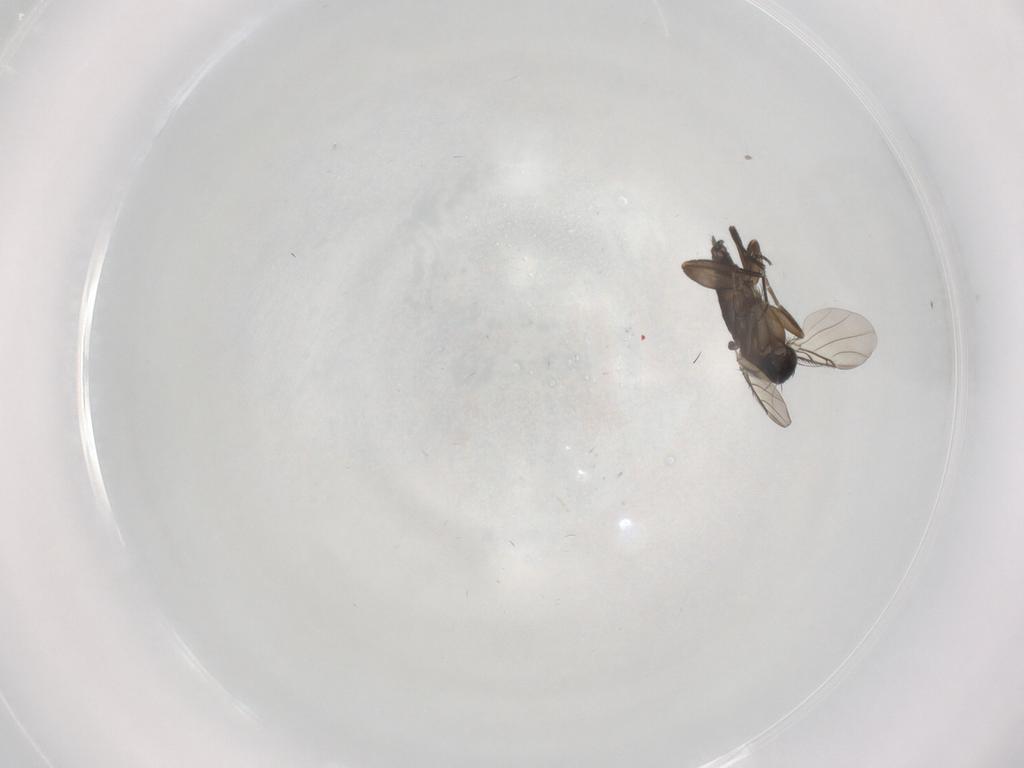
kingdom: Animalia
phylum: Arthropoda
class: Insecta
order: Diptera
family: Phoridae
